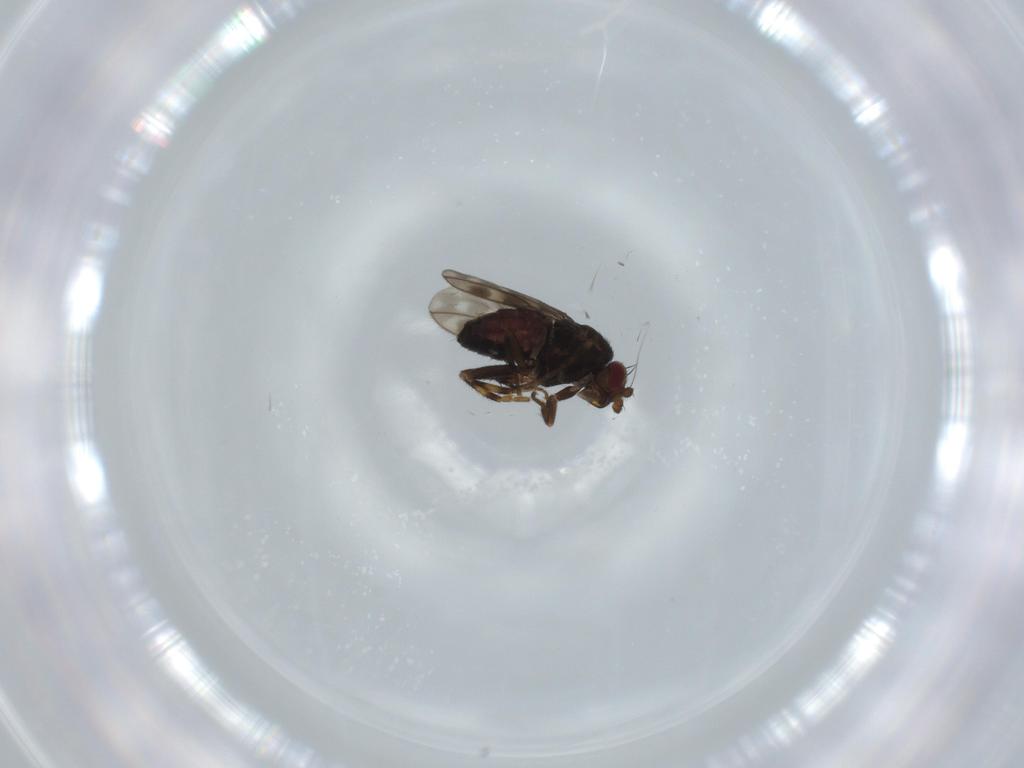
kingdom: Animalia
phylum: Arthropoda
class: Insecta
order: Diptera
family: Sphaeroceridae
